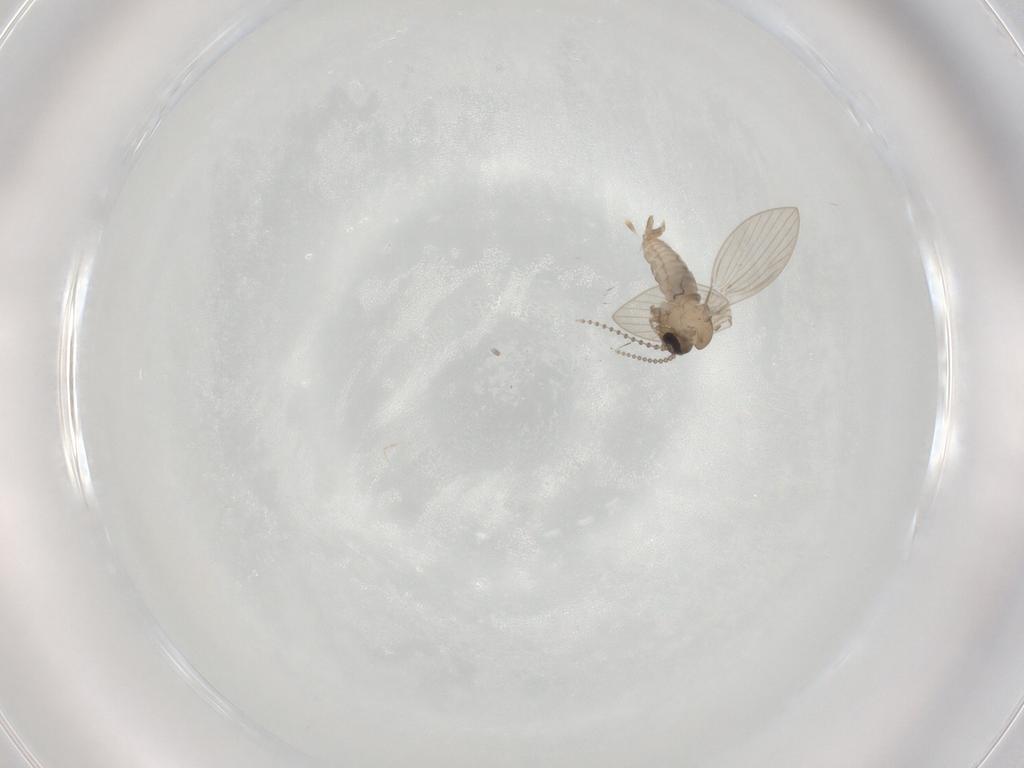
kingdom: Animalia
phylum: Arthropoda
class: Insecta
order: Diptera
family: Psychodidae
